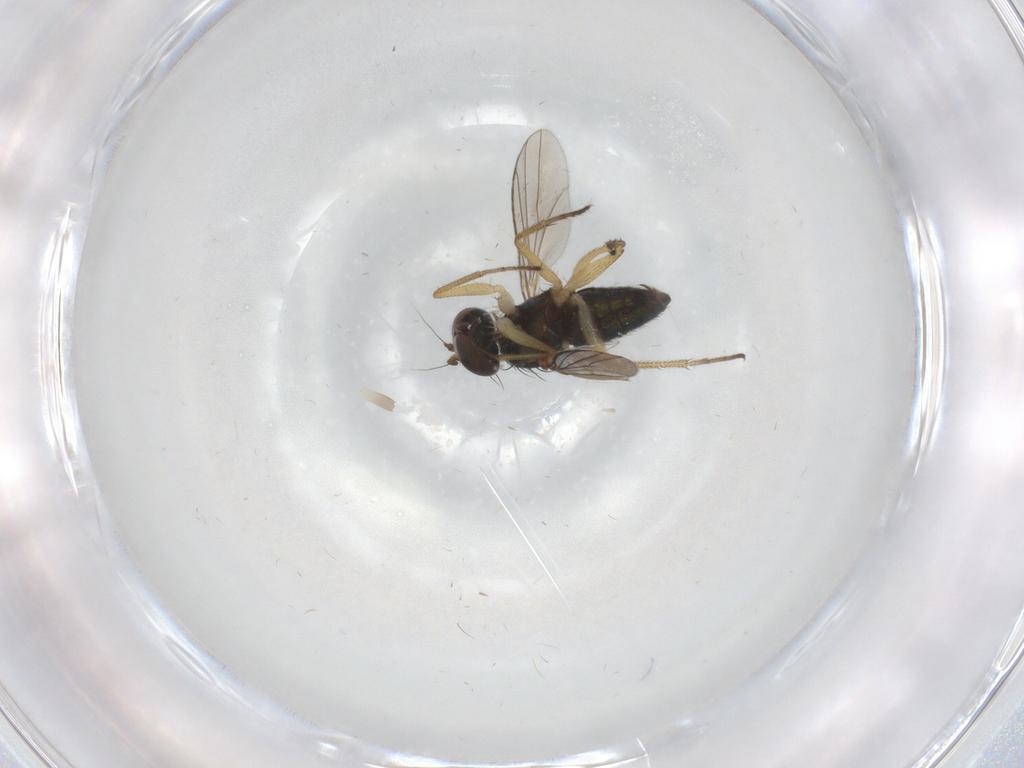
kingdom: Animalia
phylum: Arthropoda
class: Insecta
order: Diptera
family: Ceratopogonidae
